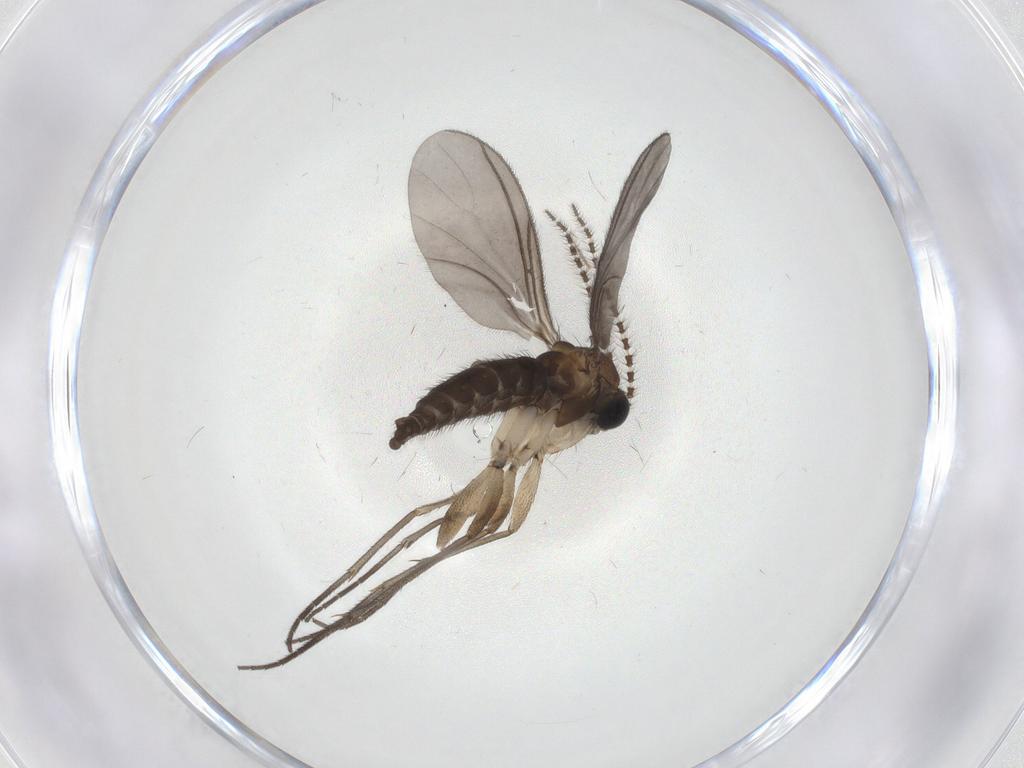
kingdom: Animalia
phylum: Arthropoda
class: Insecta
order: Diptera
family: Sciaridae
